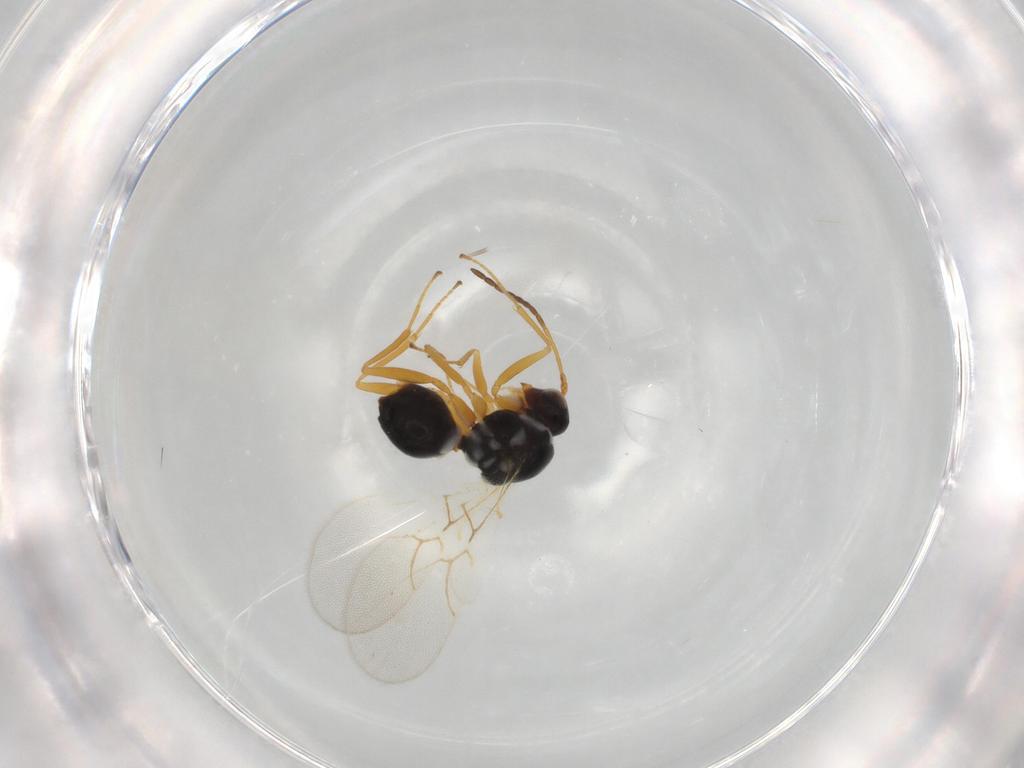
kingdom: Animalia
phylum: Arthropoda
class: Insecta
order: Hymenoptera
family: Figitidae
